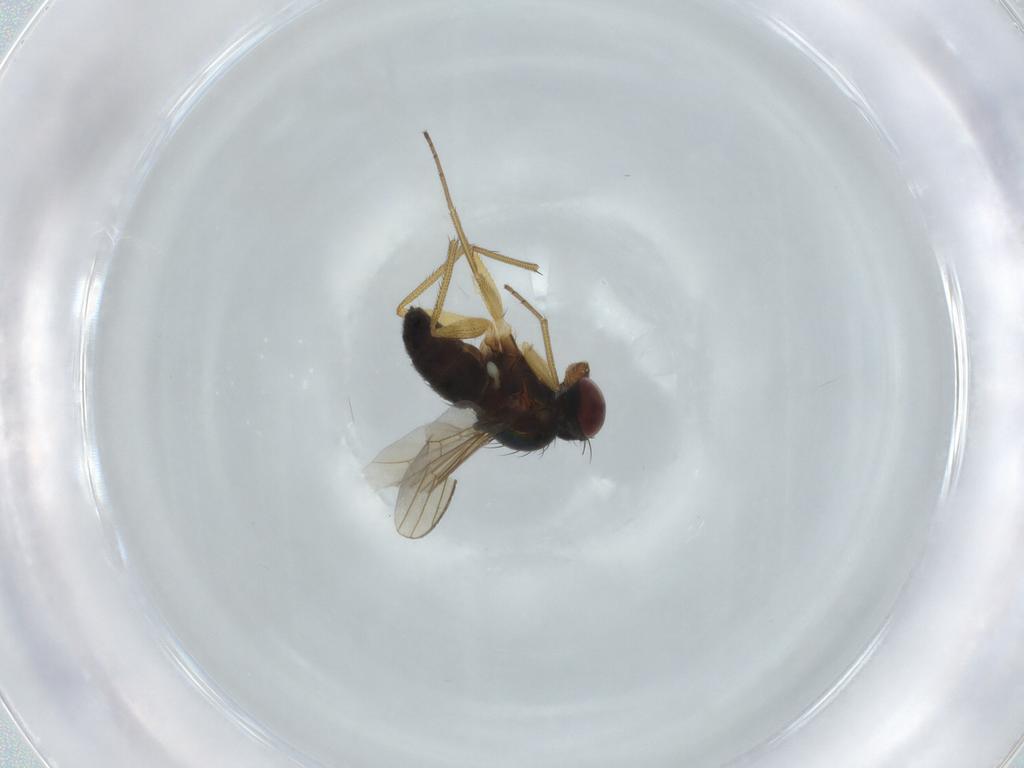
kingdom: Animalia
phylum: Arthropoda
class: Insecta
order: Diptera
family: Dolichopodidae
